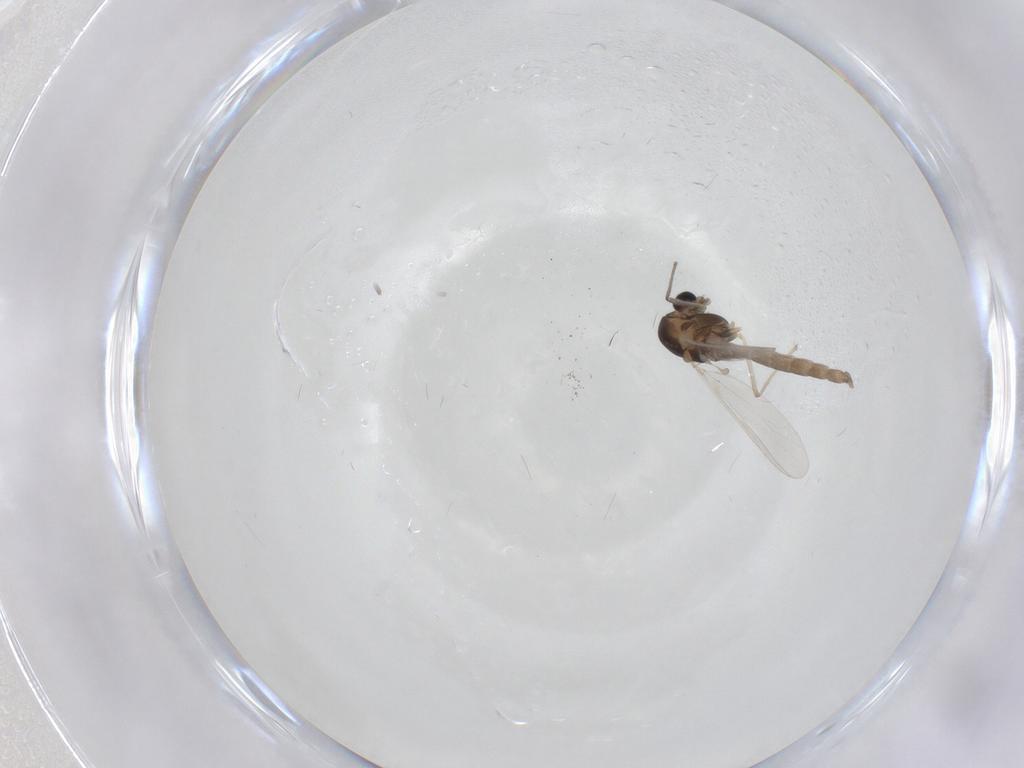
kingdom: Animalia
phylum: Arthropoda
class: Insecta
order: Diptera
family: Chironomidae
